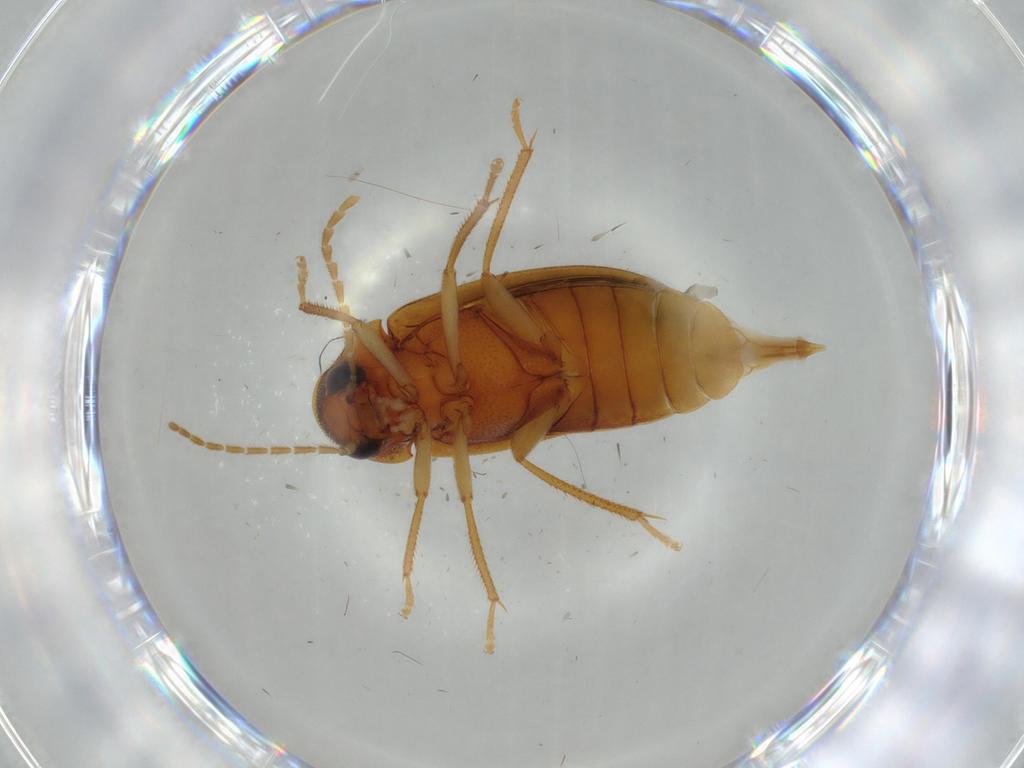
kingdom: Animalia
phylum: Arthropoda
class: Insecta
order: Coleoptera
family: Ptilodactylidae
